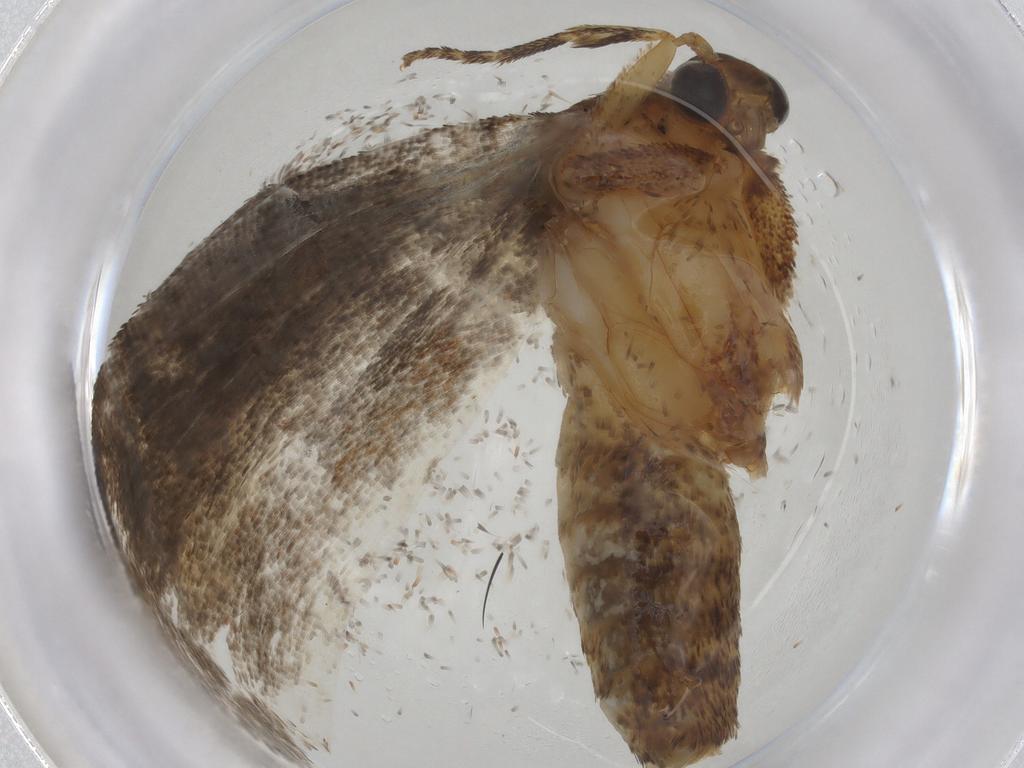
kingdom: Animalia
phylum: Arthropoda
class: Insecta
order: Lepidoptera
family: Tortricidae
